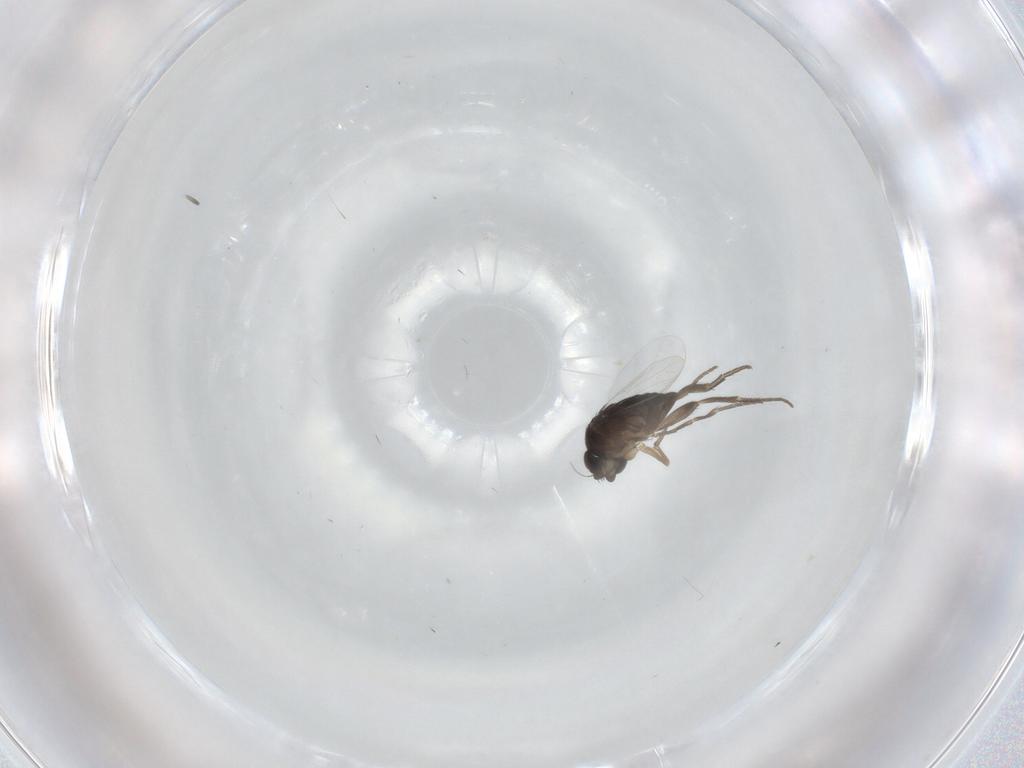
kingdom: Animalia
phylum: Arthropoda
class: Insecta
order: Diptera
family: Phoridae
